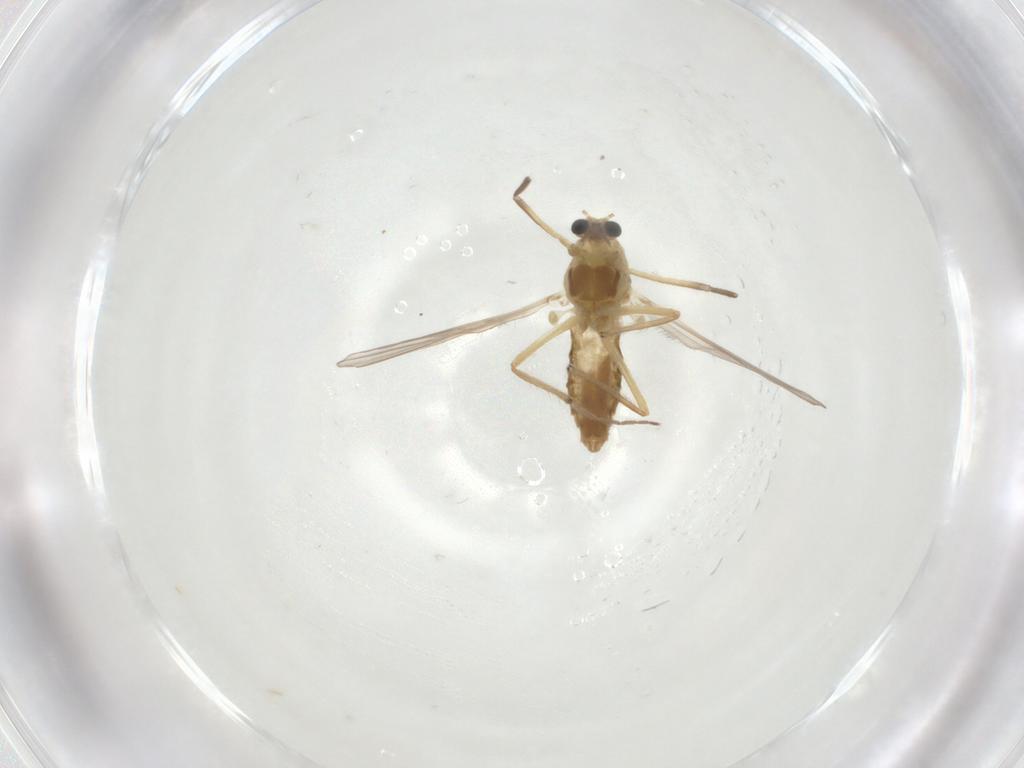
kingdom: Animalia
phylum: Arthropoda
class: Insecta
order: Diptera
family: Chironomidae
